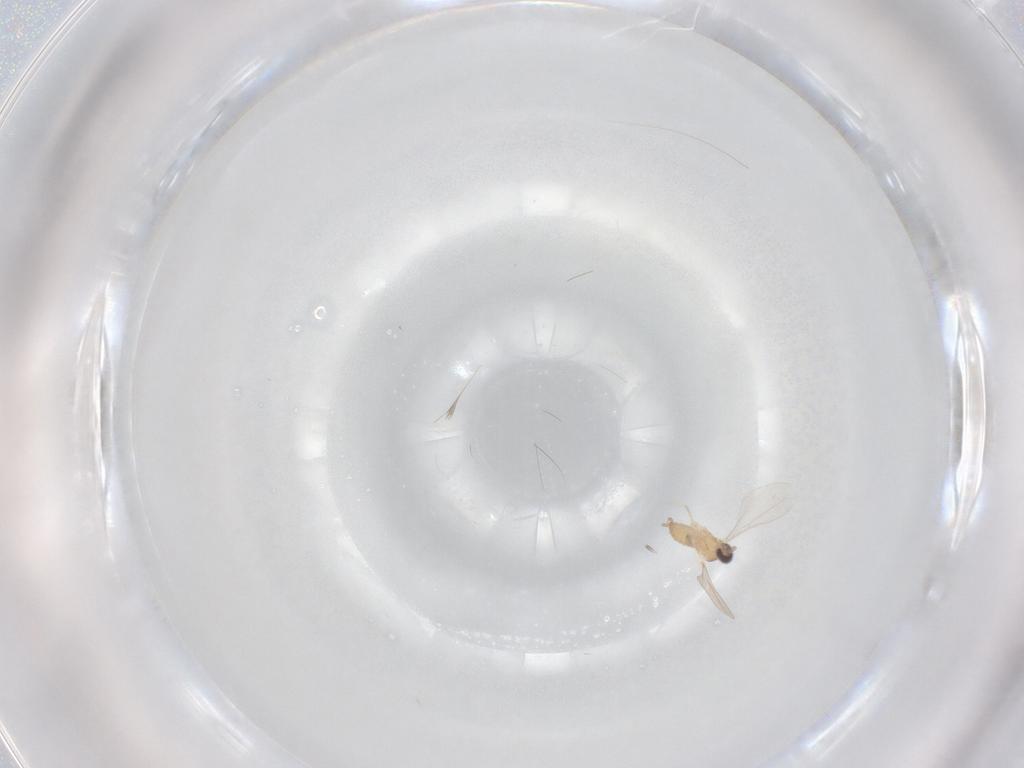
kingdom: Animalia
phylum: Arthropoda
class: Insecta
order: Diptera
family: Cecidomyiidae
